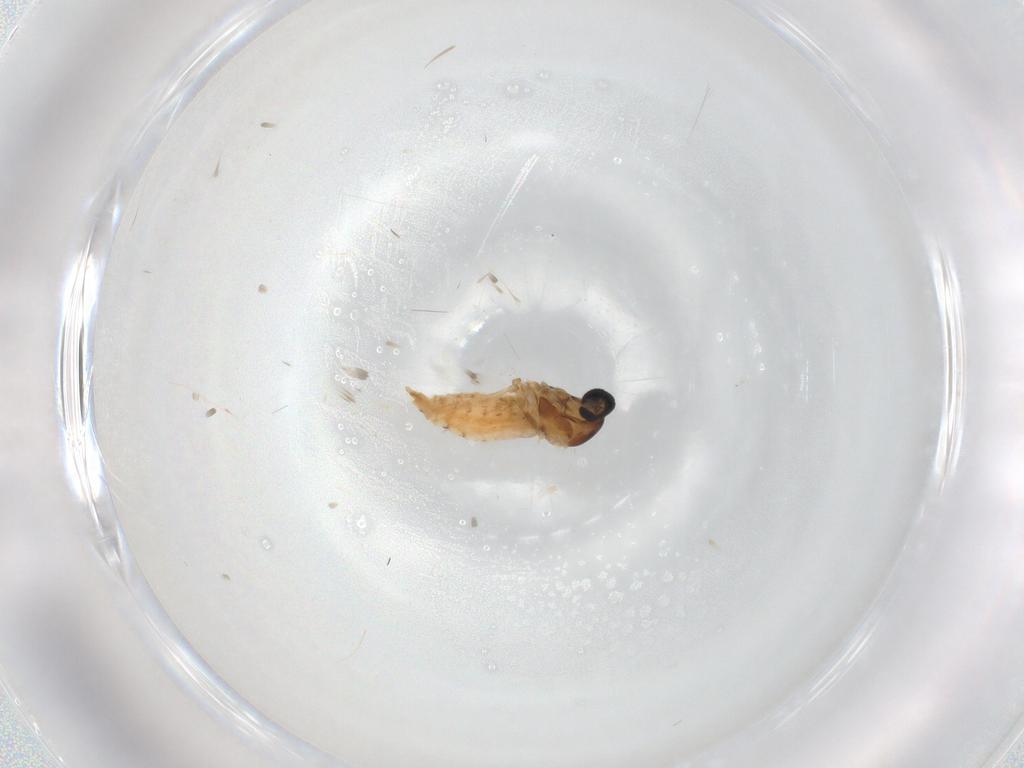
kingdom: Animalia
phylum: Arthropoda
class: Insecta
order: Diptera
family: Cecidomyiidae
